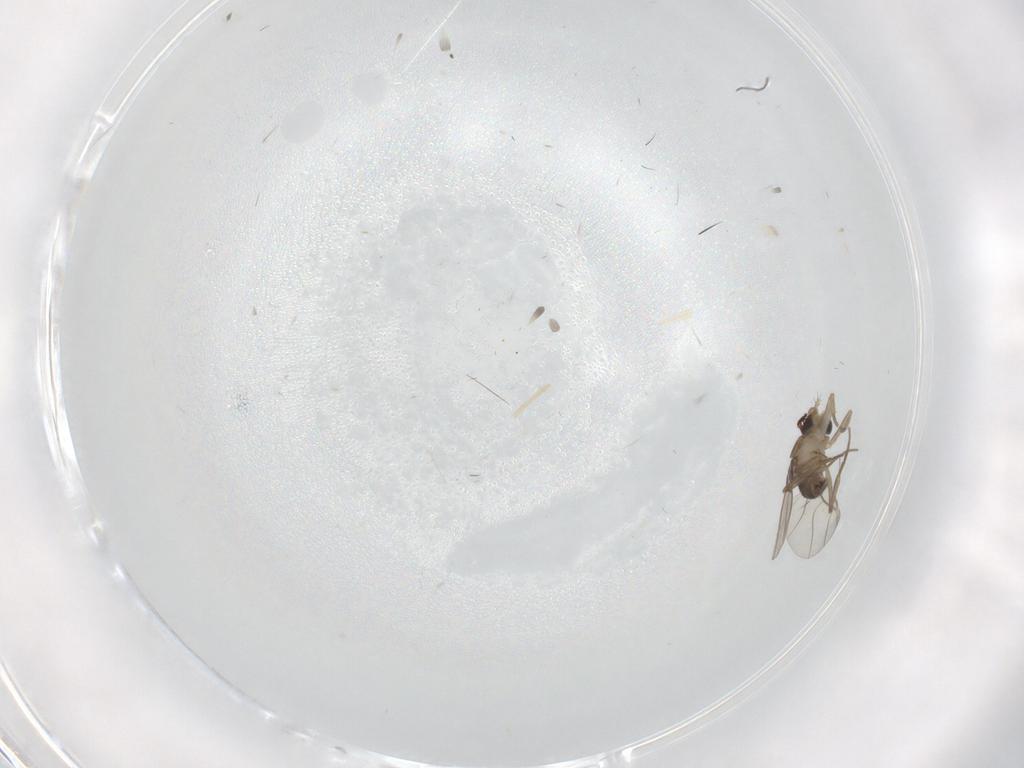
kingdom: Animalia
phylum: Arthropoda
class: Insecta
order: Diptera
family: Phoridae
